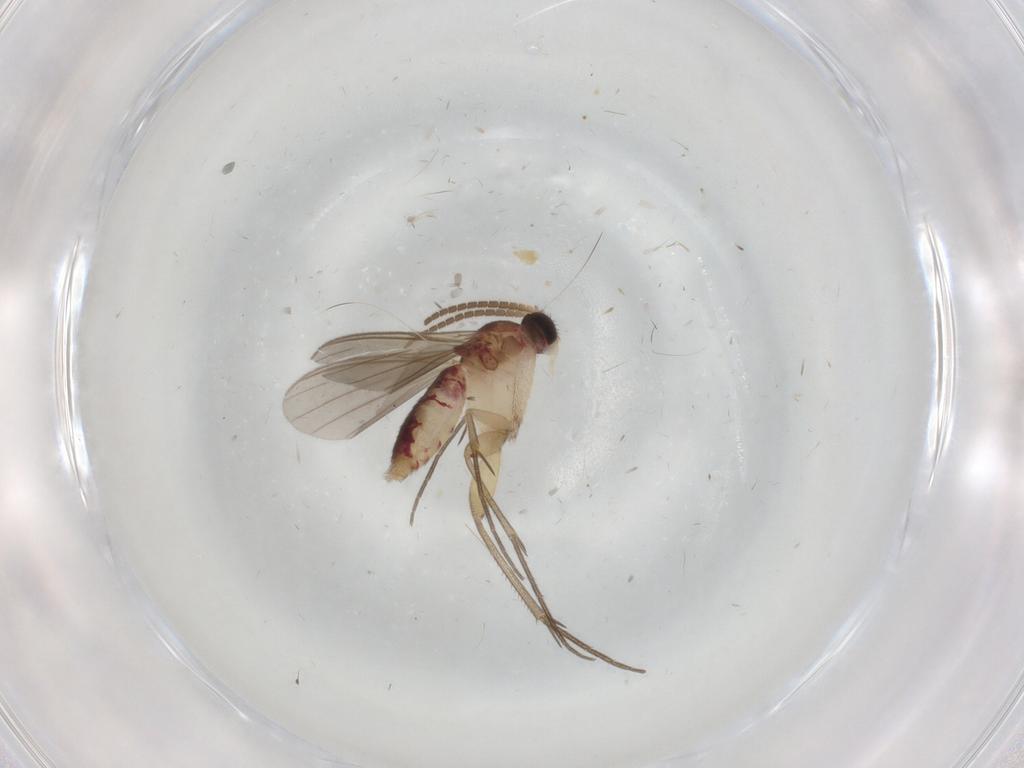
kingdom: Animalia
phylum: Arthropoda
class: Insecta
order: Diptera
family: Mycetophilidae
